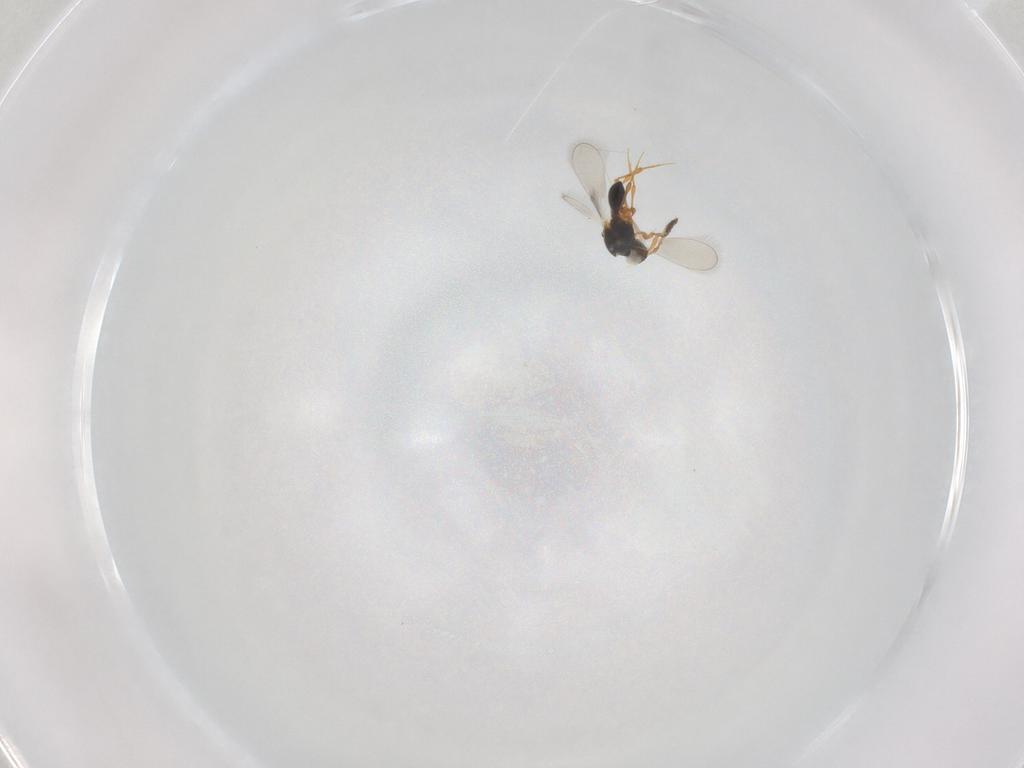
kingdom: Animalia
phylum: Arthropoda
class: Insecta
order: Hymenoptera
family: Platygastridae
